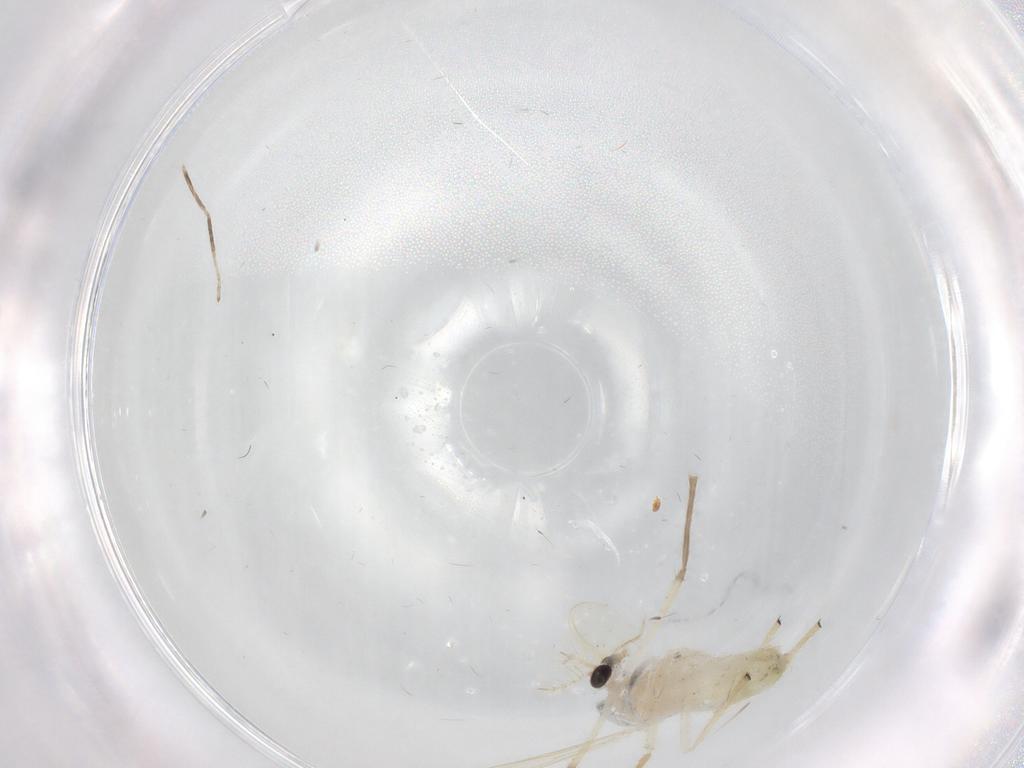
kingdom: Animalia
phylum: Arthropoda
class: Insecta
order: Diptera
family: Chironomidae
